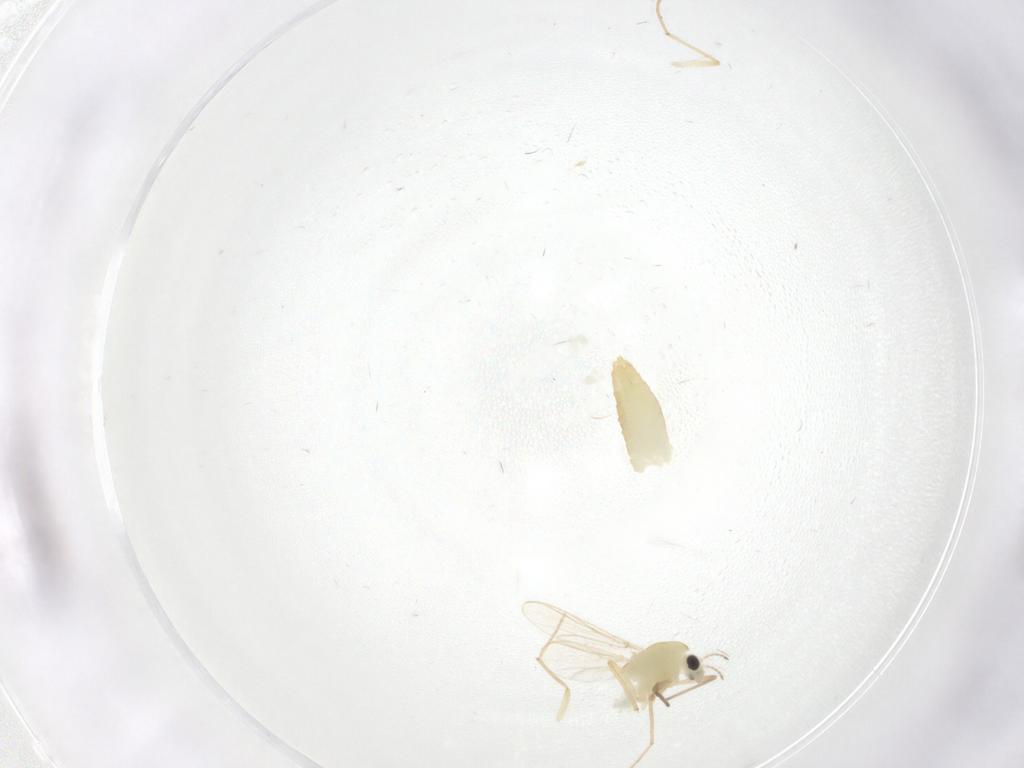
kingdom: Animalia
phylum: Arthropoda
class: Insecta
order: Diptera
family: Chironomidae
